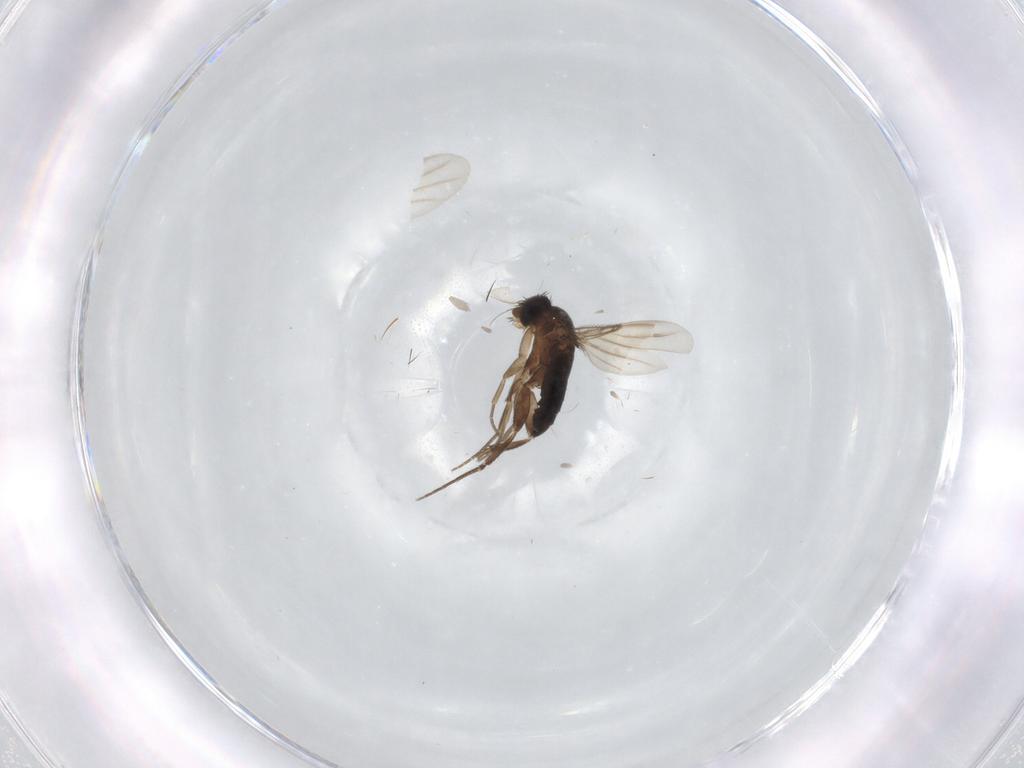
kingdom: Animalia
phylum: Arthropoda
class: Insecta
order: Diptera
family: Phoridae
